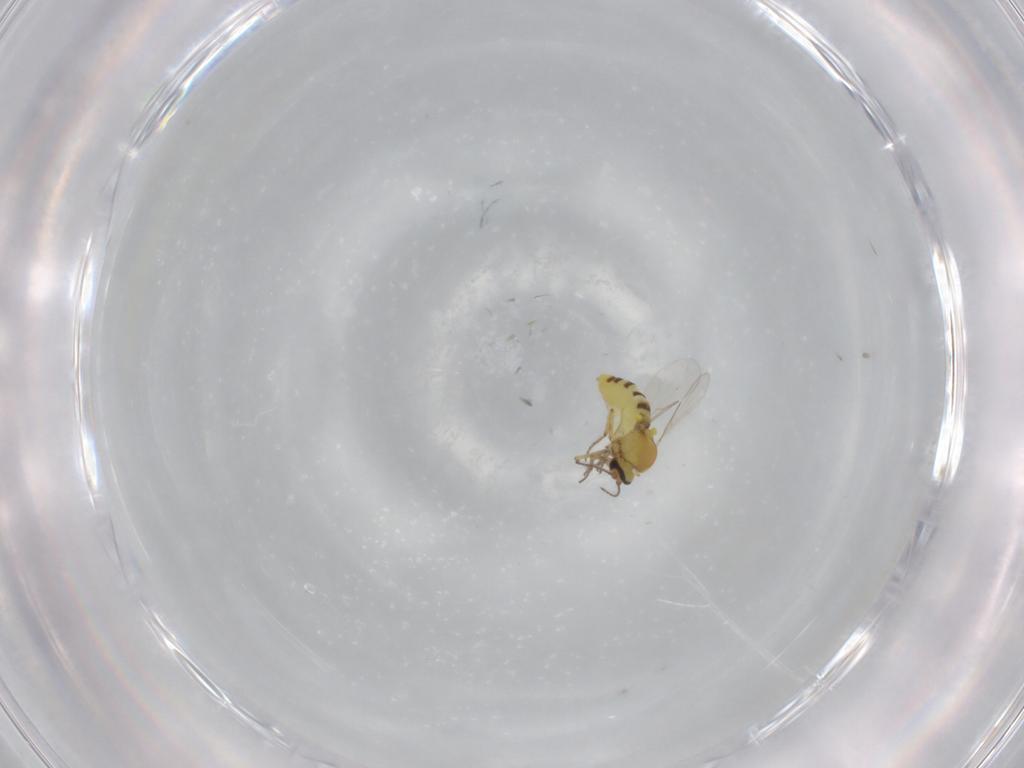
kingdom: Animalia
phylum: Arthropoda
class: Insecta
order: Diptera
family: Ceratopogonidae
